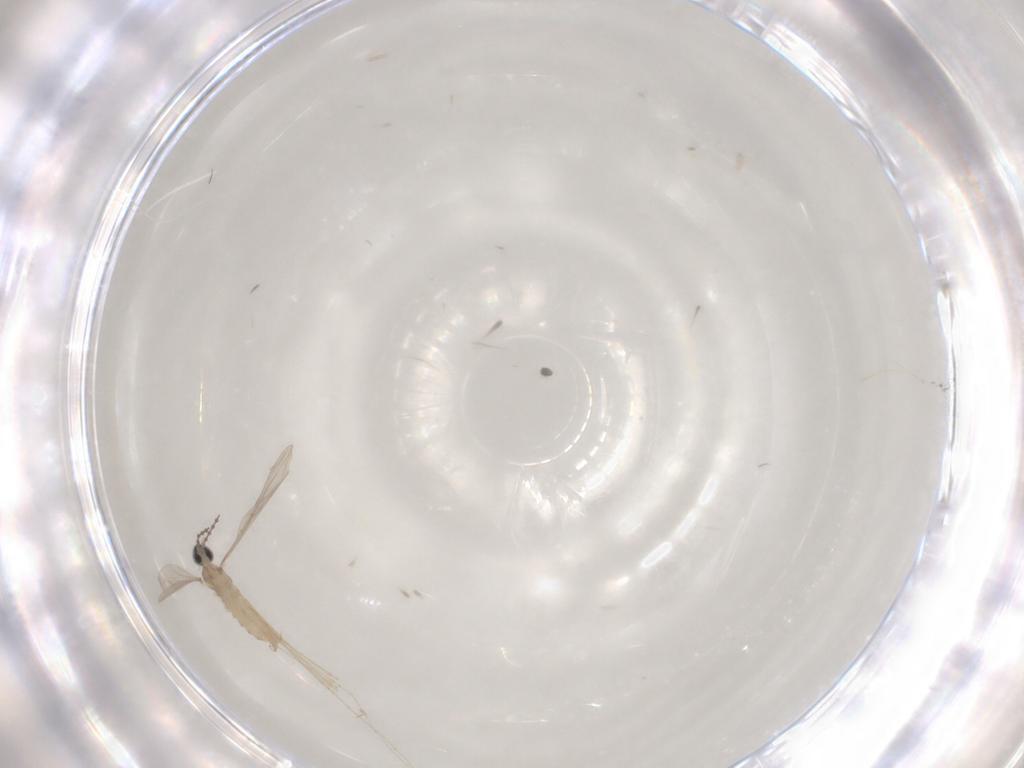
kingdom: Animalia
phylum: Arthropoda
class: Insecta
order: Diptera
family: Cecidomyiidae
